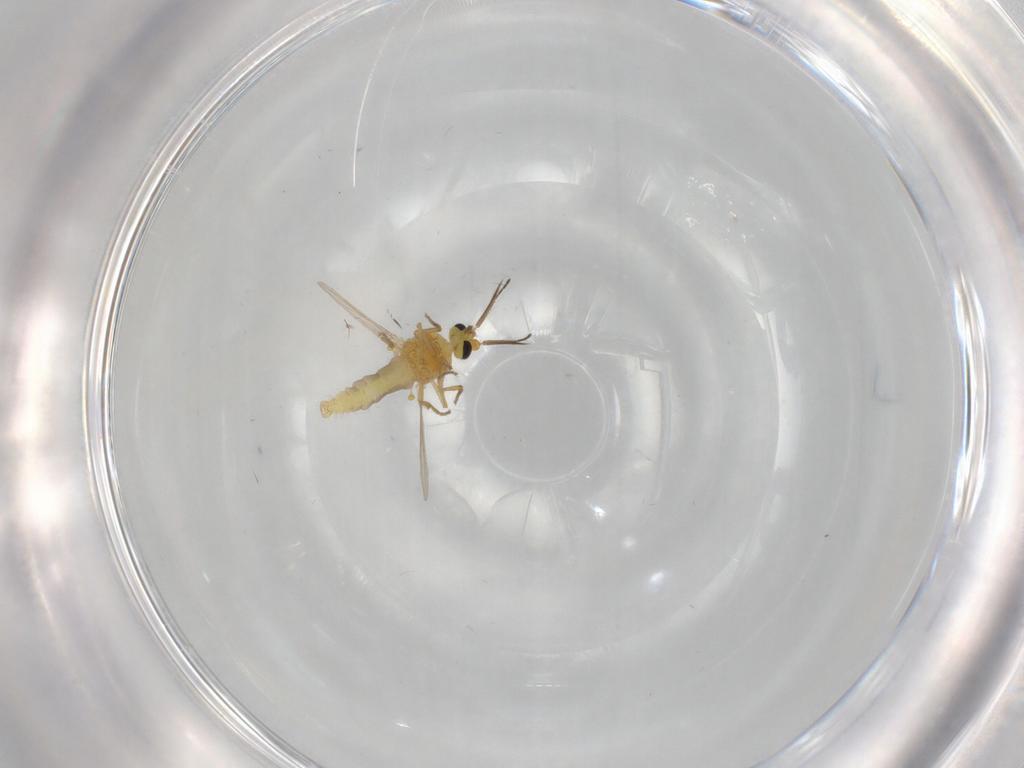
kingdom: Animalia
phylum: Arthropoda
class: Insecta
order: Diptera
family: Ceratopogonidae
